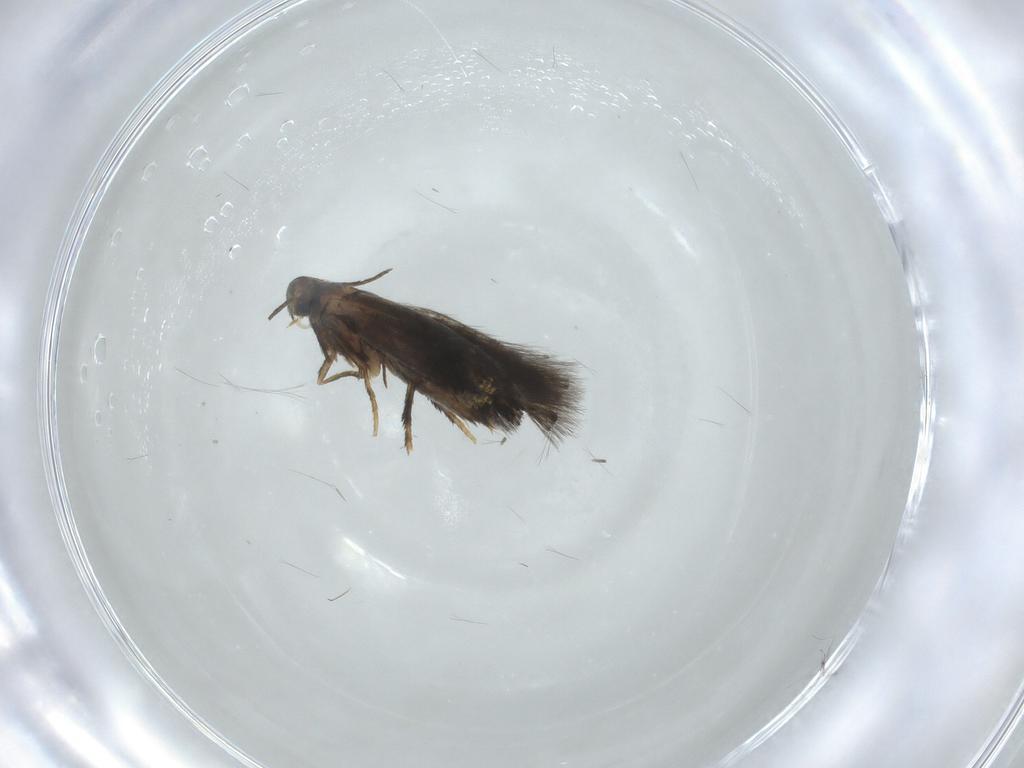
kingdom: Animalia
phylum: Arthropoda
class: Insecta
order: Lepidoptera
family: Heliozelidae
